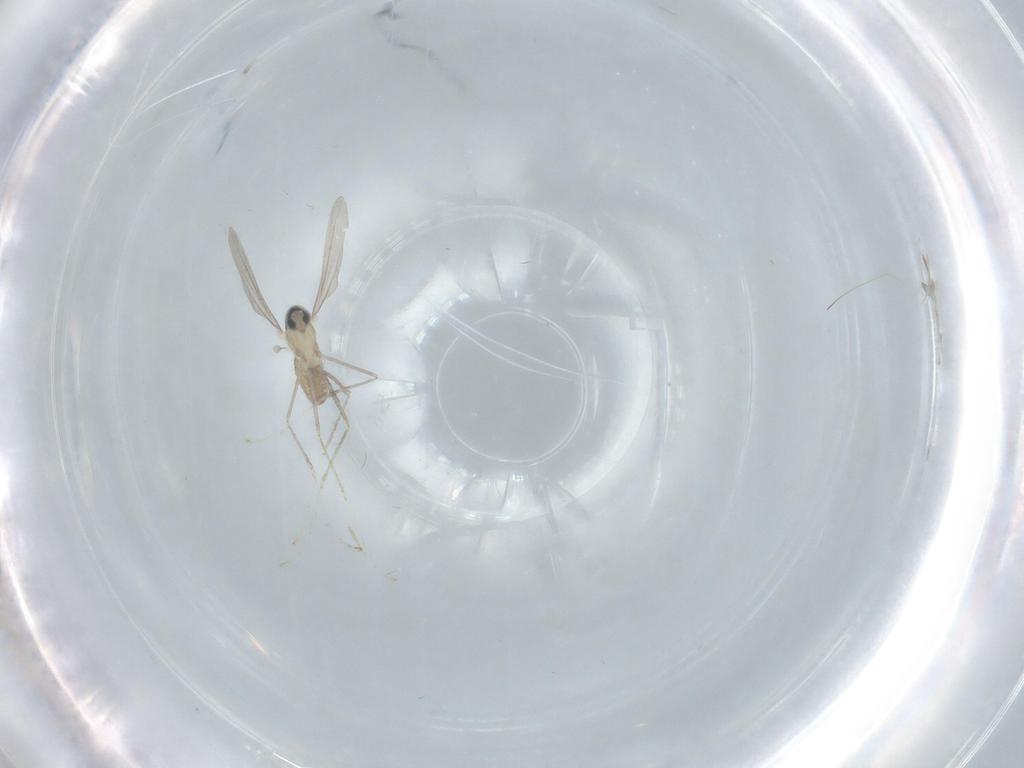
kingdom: Animalia
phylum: Arthropoda
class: Insecta
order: Diptera
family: Cecidomyiidae
